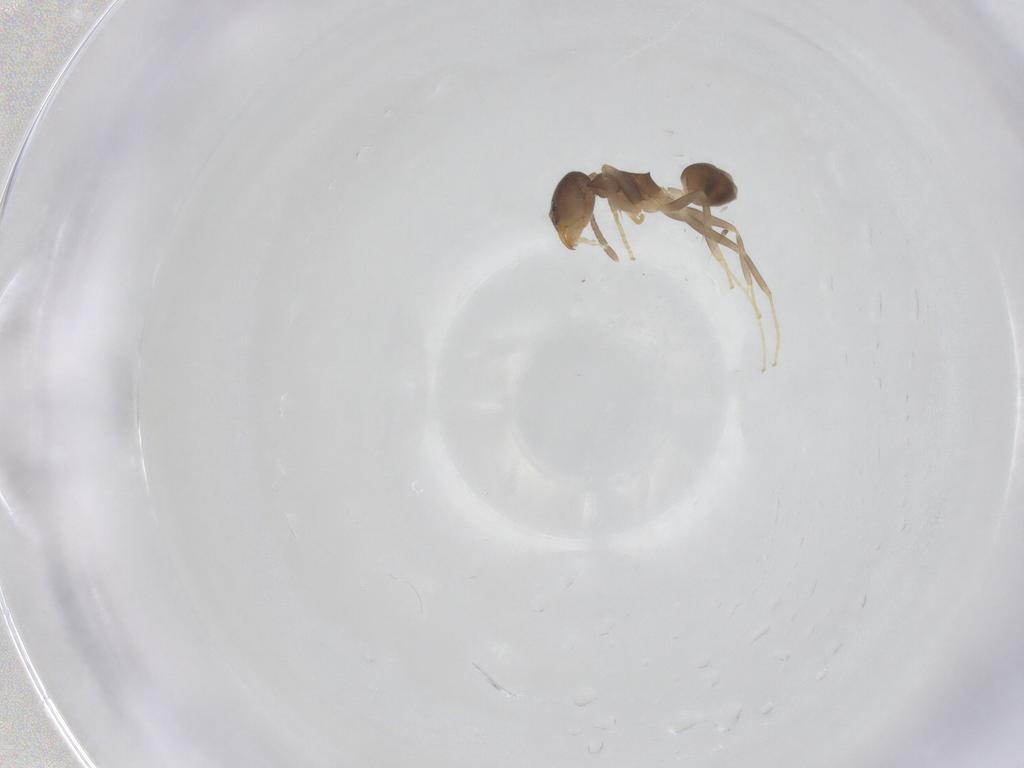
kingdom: Animalia
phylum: Arthropoda
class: Insecta
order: Hymenoptera
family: Formicidae
